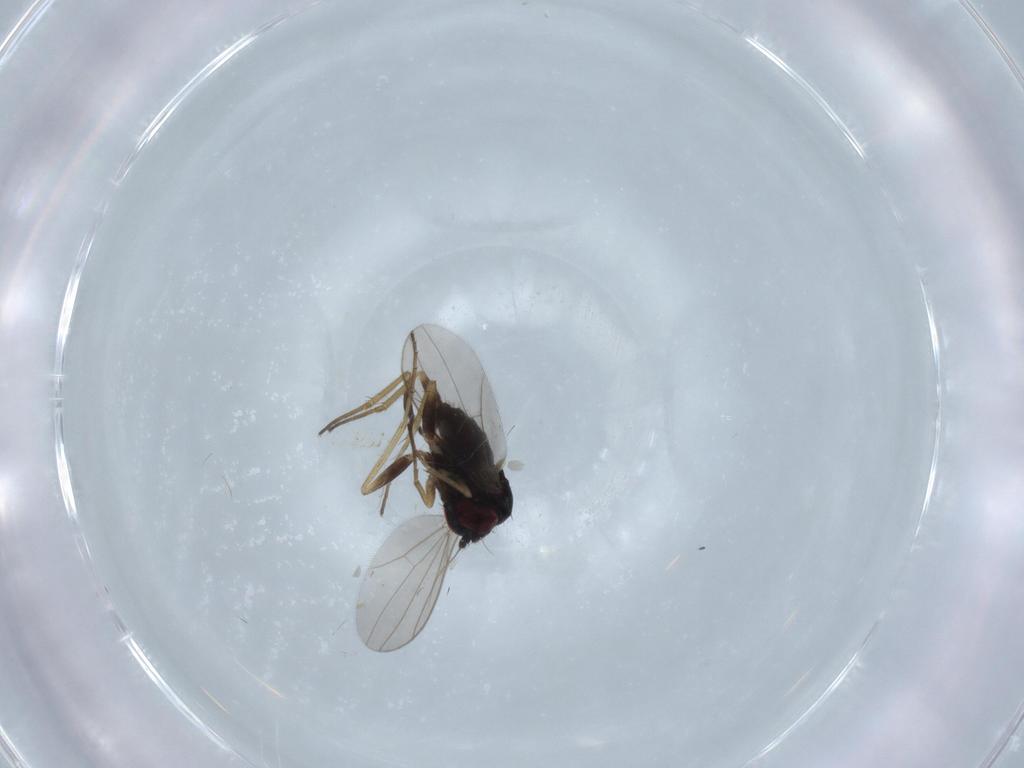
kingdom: Animalia
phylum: Arthropoda
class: Insecta
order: Diptera
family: Dolichopodidae
